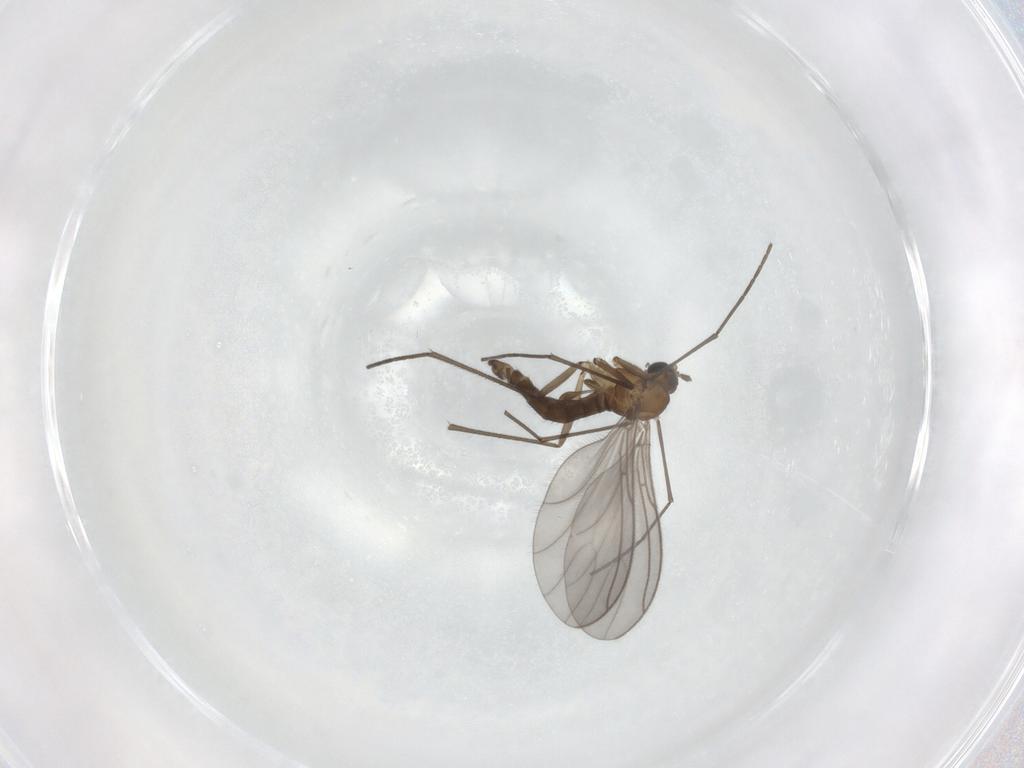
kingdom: Animalia
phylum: Arthropoda
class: Insecta
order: Diptera
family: Sciaridae
